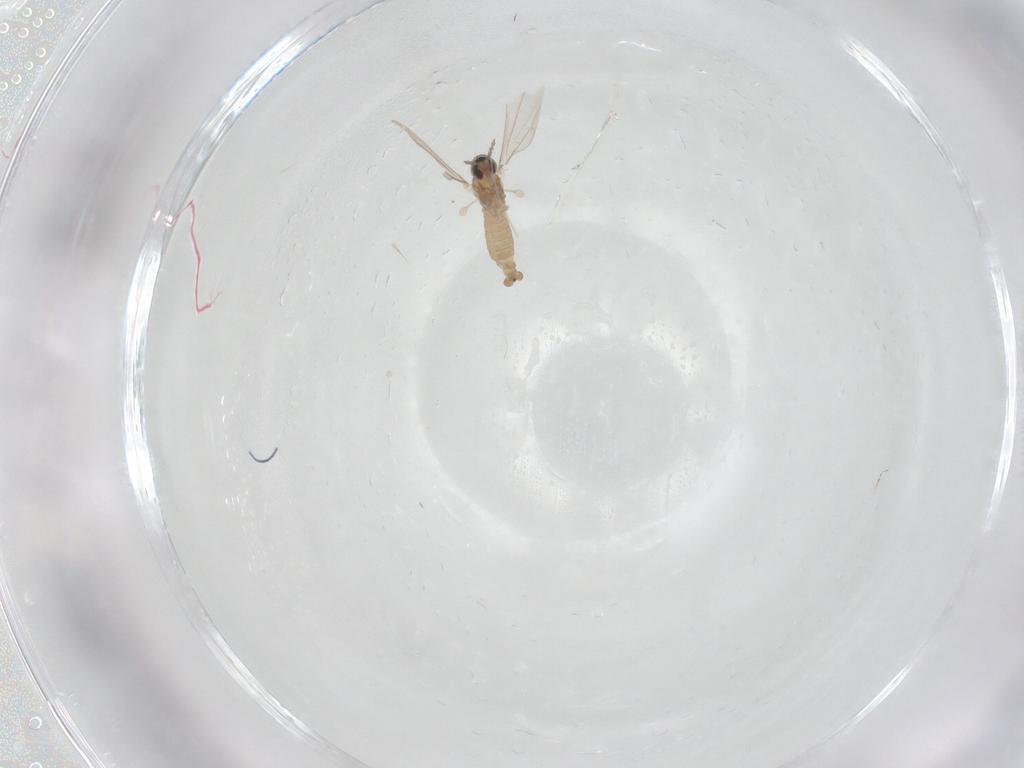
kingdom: Animalia
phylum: Arthropoda
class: Insecta
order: Diptera
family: Cecidomyiidae
